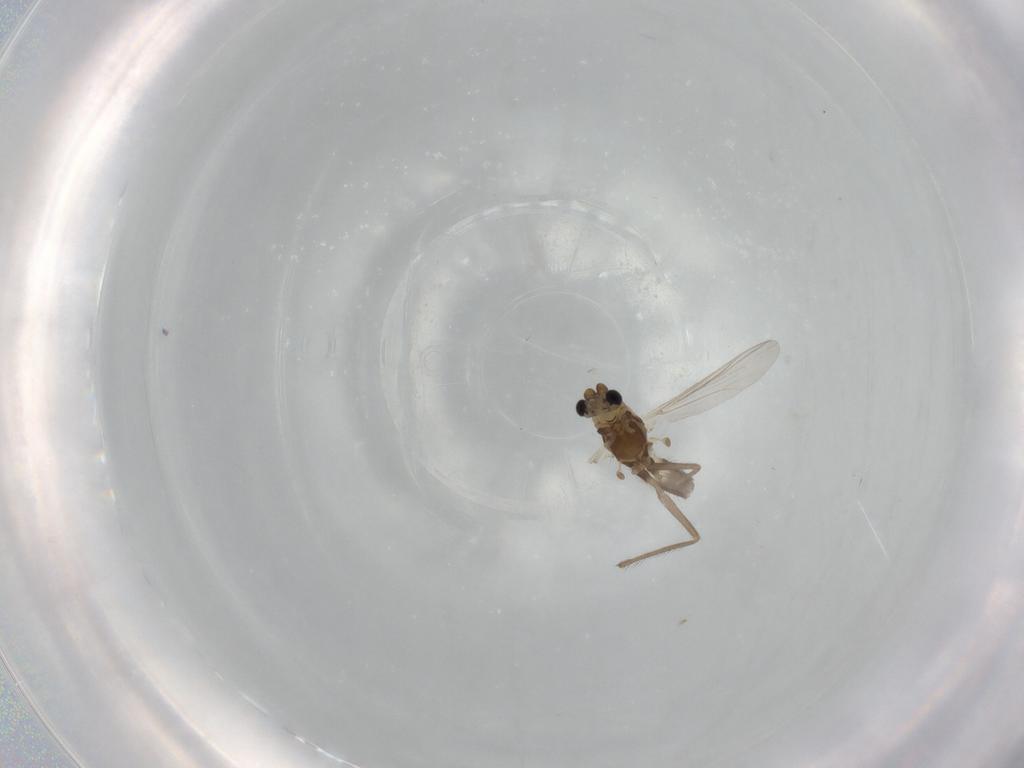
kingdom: Animalia
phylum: Arthropoda
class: Insecta
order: Diptera
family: Chironomidae
